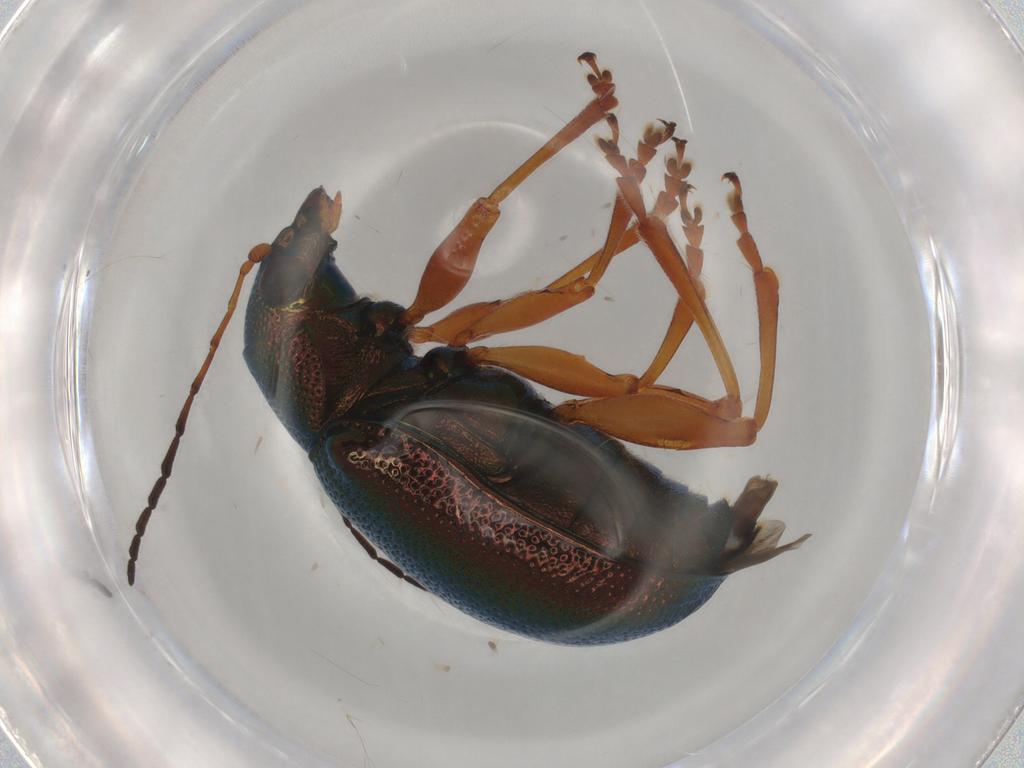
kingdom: Animalia
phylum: Arthropoda
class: Insecta
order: Coleoptera
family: Chrysomelidae
